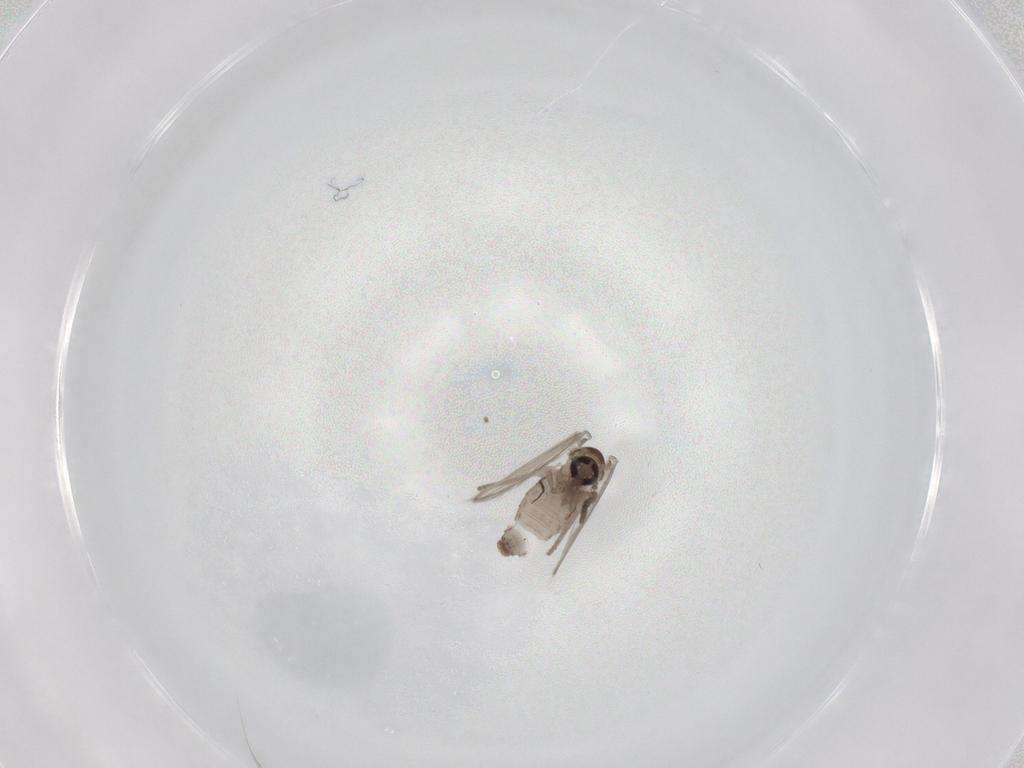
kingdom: Animalia
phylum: Arthropoda
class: Insecta
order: Diptera
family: Psychodidae
